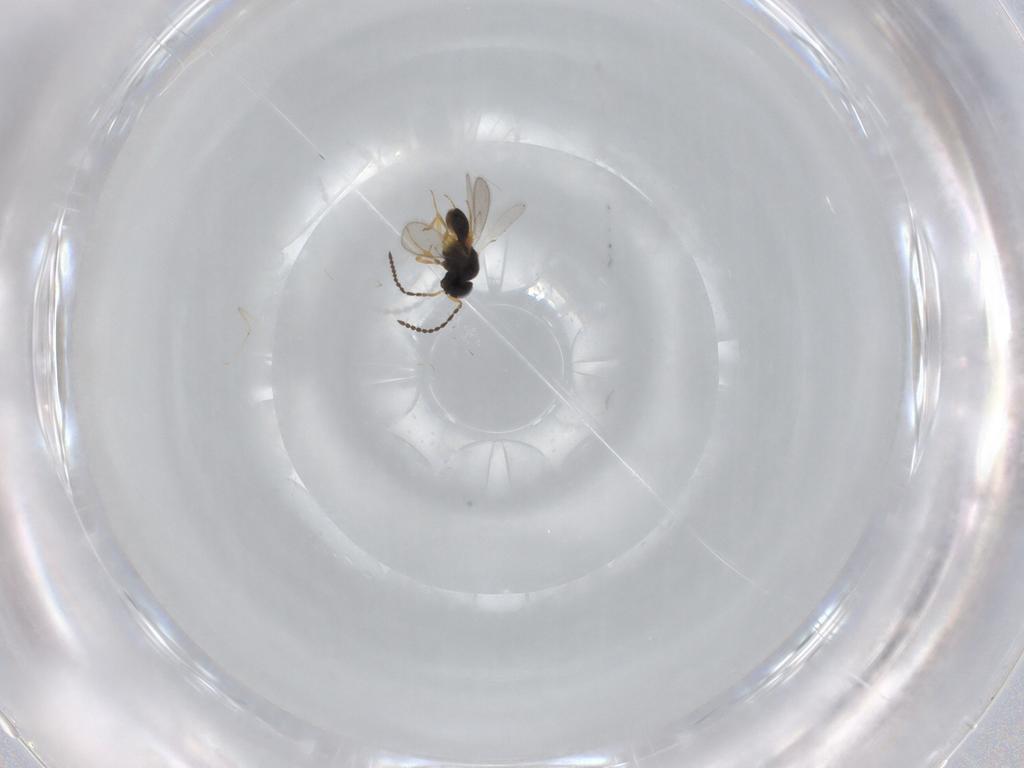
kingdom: Animalia
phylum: Arthropoda
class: Insecta
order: Hymenoptera
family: Scelionidae
